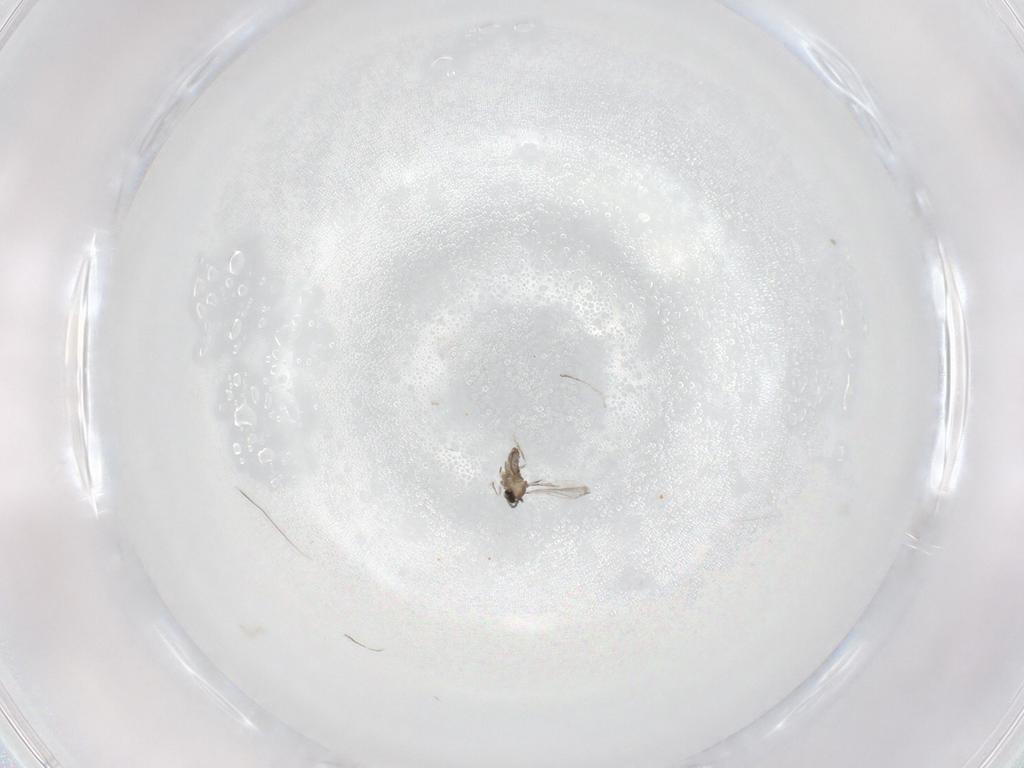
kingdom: Animalia
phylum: Arthropoda
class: Insecta
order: Diptera
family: Cecidomyiidae
